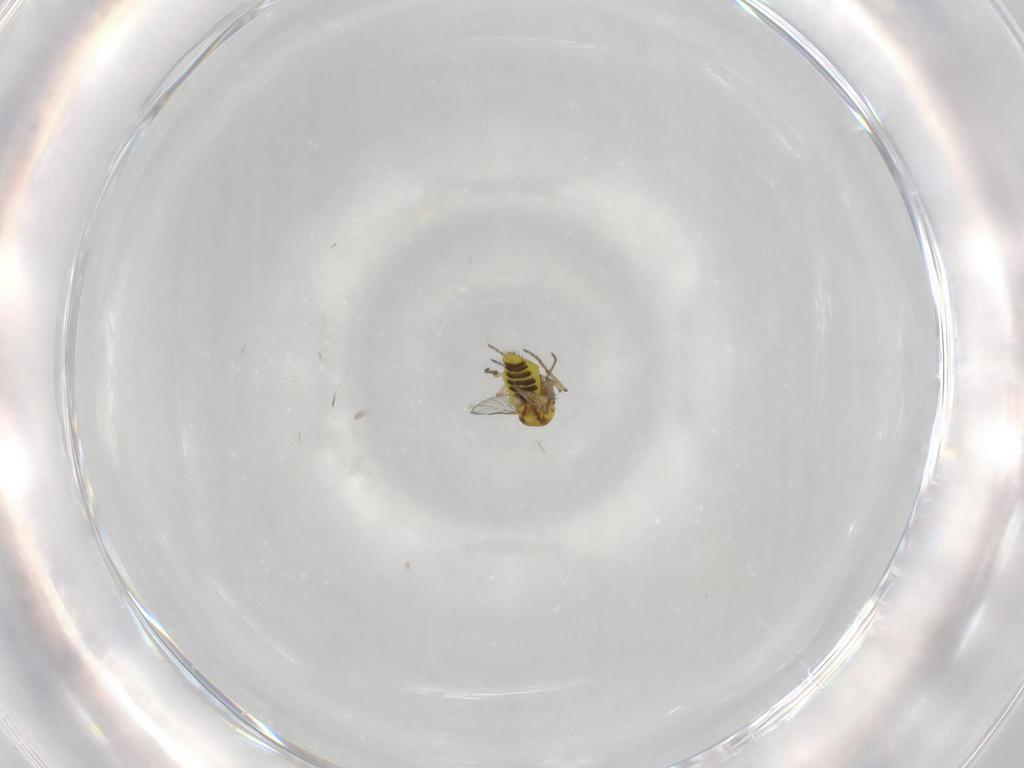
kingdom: Animalia
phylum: Arthropoda
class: Insecta
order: Diptera
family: Ceratopogonidae
